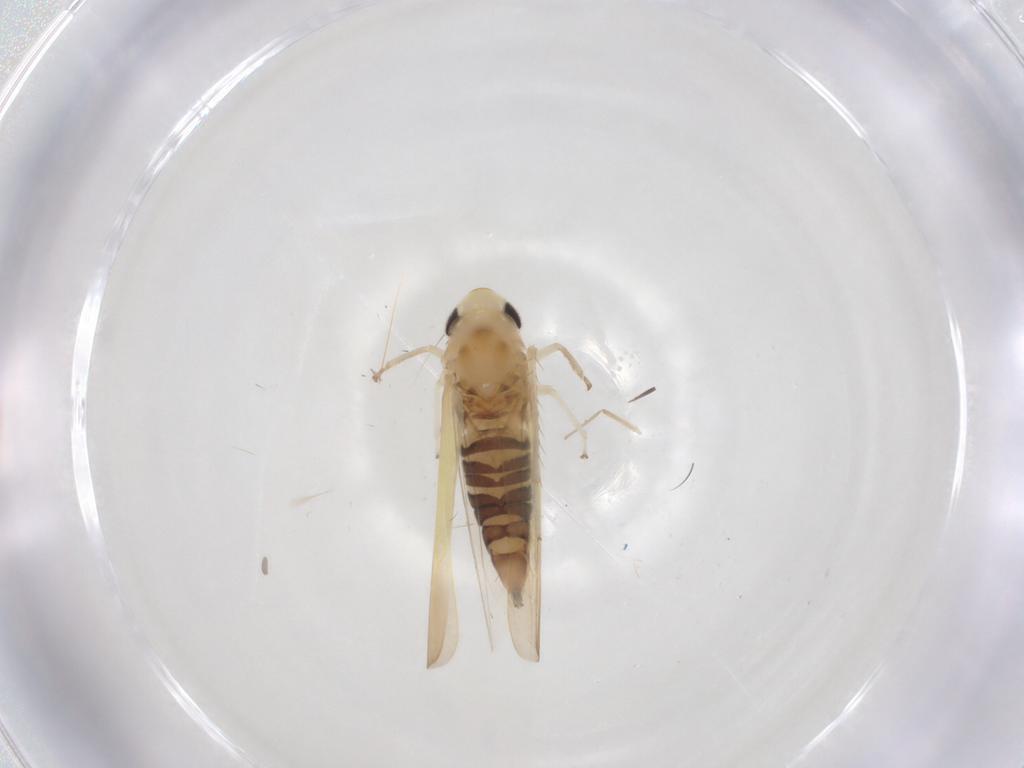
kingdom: Animalia
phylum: Arthropoda
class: Insecta
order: Hemiptera
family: Cicadellidae
